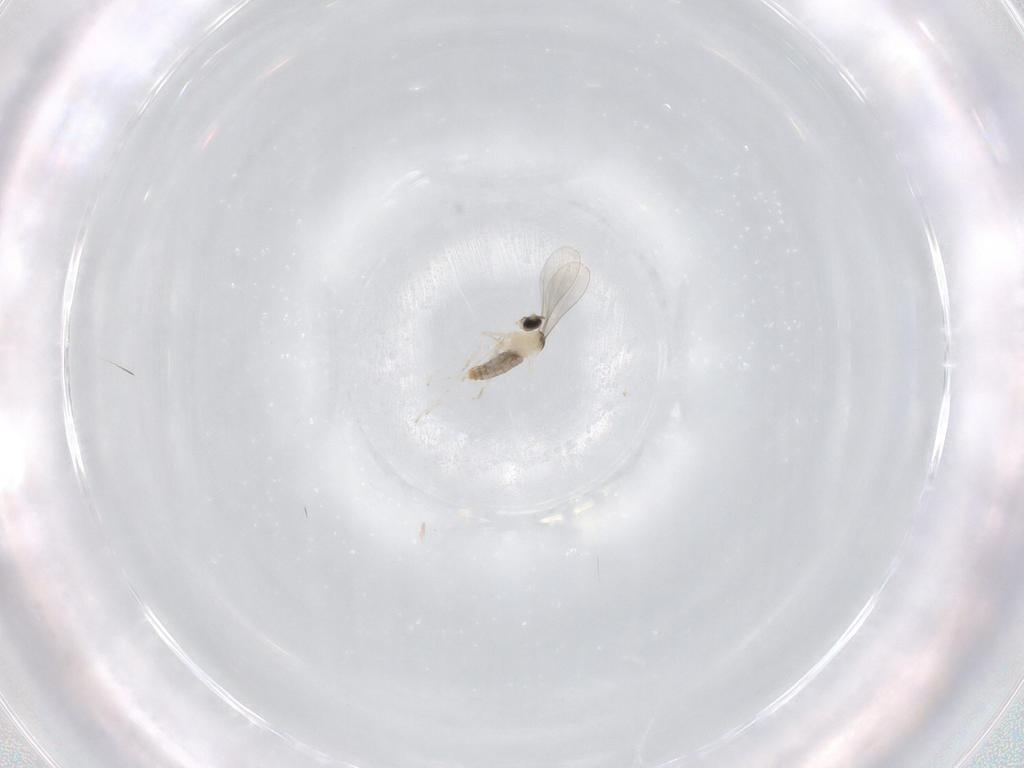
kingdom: Animalia
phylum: Arthropoda
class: Insecta
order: Diptera
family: Cecidomyiidae
